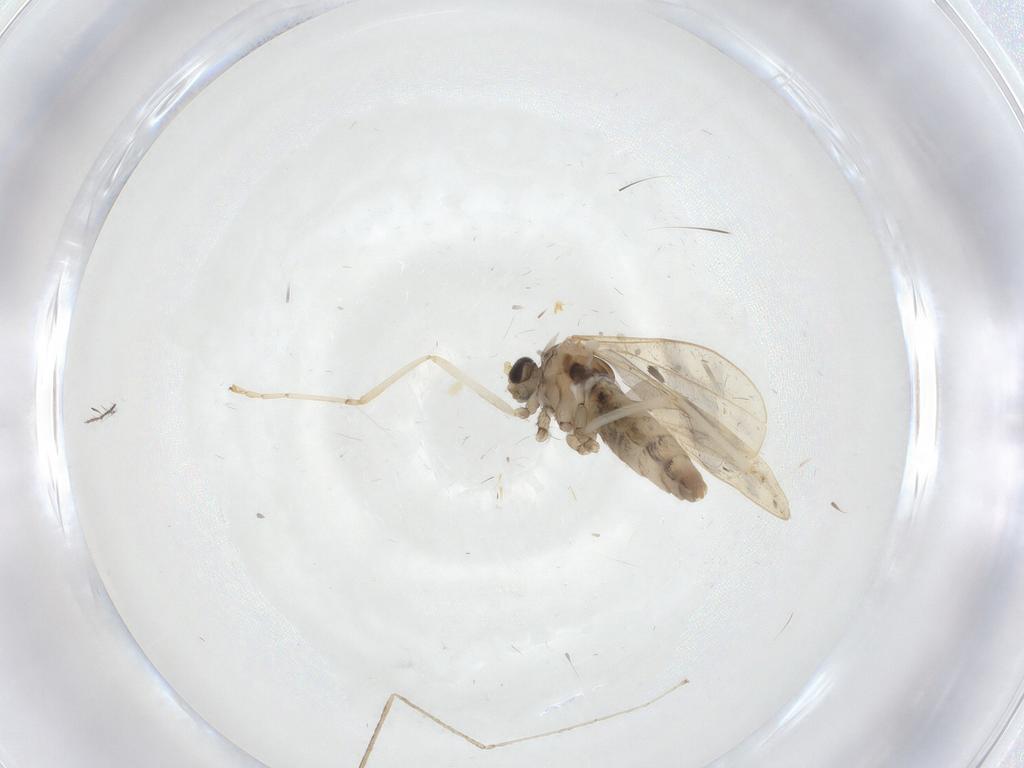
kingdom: Animalia
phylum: Arthropoda
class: Insecta
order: Diptera
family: Cecidomyiidae
